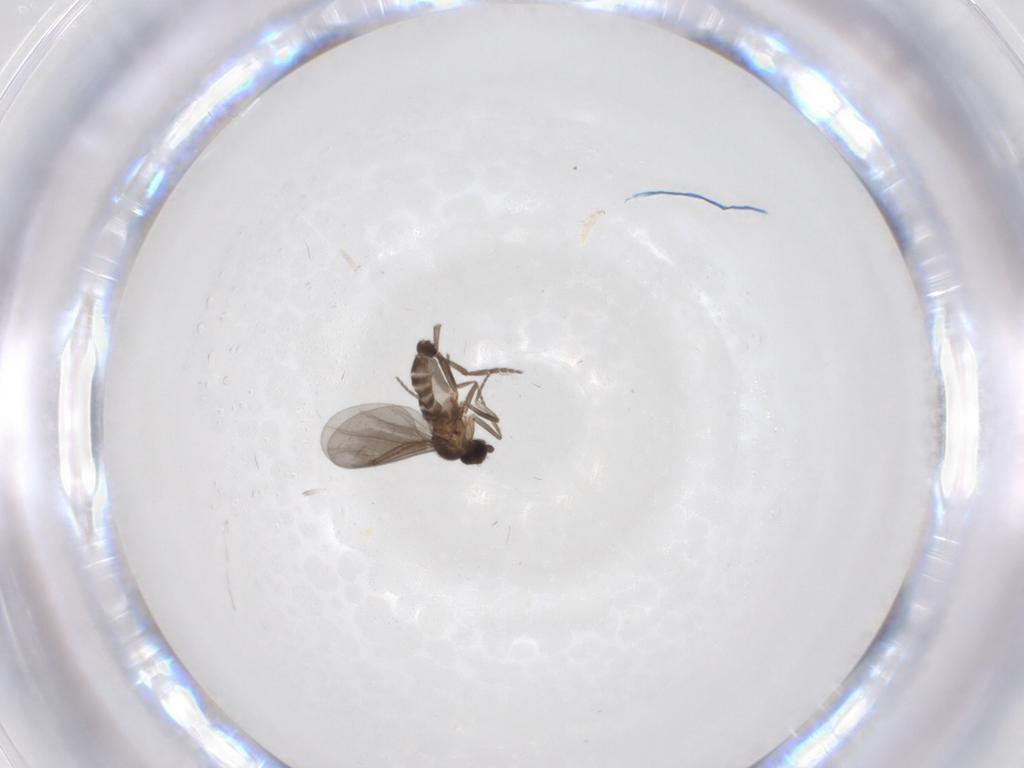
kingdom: Animalia
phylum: Arthropoda
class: Insecta
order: Diptera
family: Phoridae
